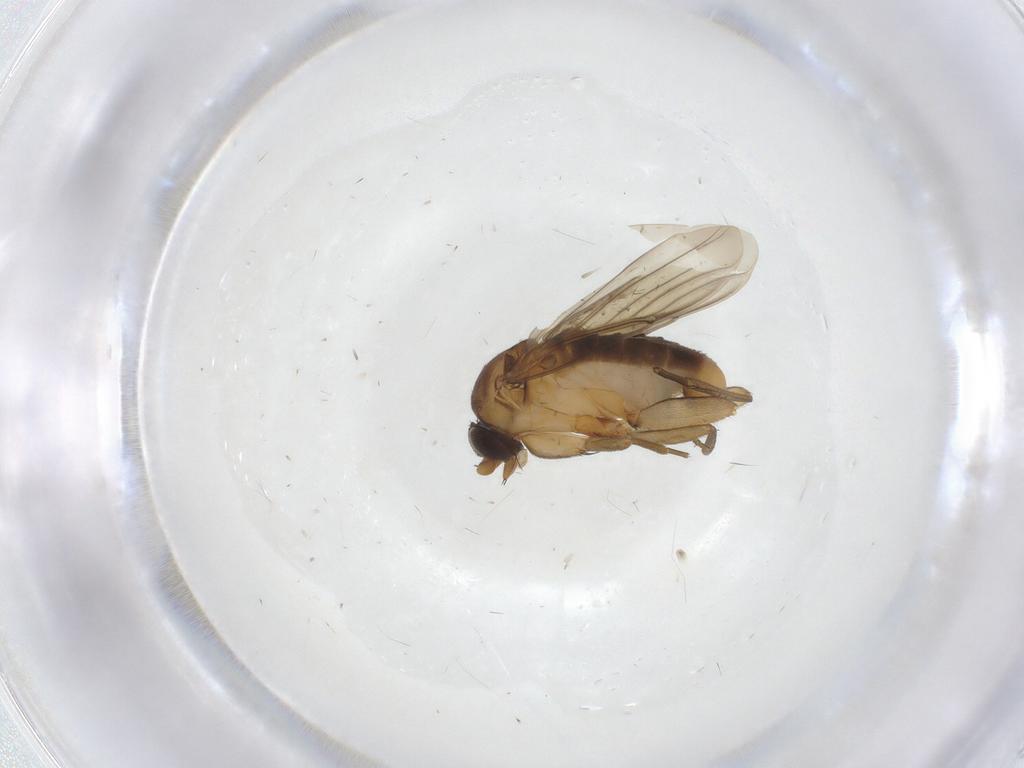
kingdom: Animalia
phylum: Arthropoda
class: Insecta
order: Diptera
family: Phoridae
